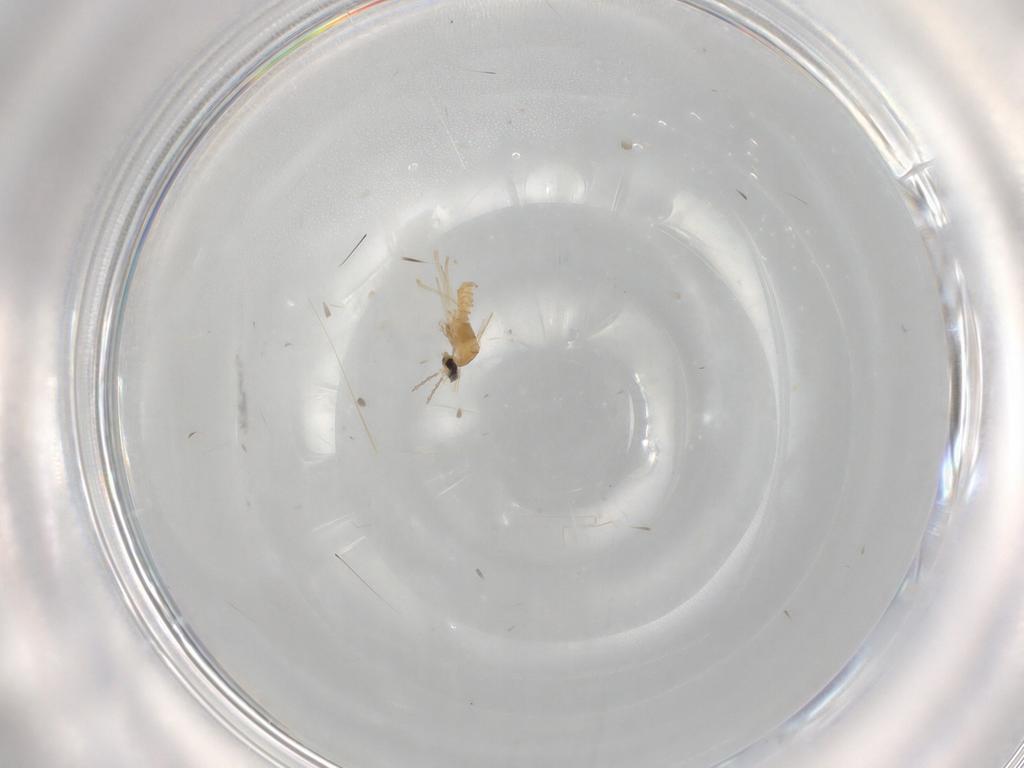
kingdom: Animalia
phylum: Arthropoda
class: Insecta
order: Diptera
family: Cecidomyiidae
